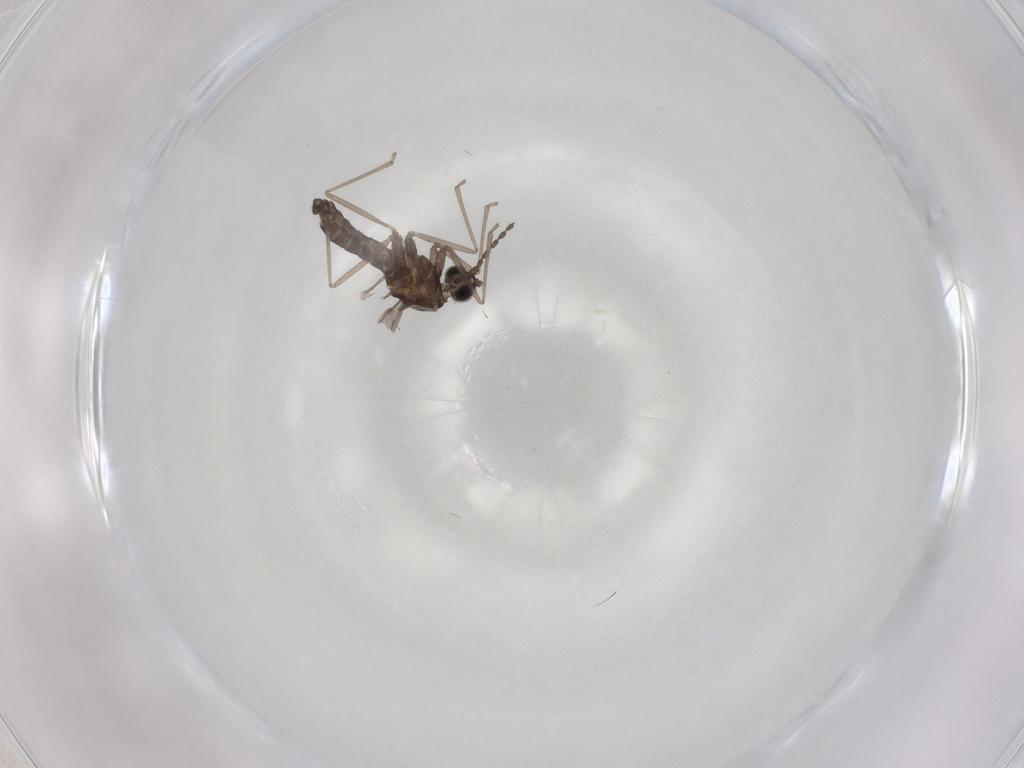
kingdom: Animalia
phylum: Arthropoda
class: Insecta
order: Diptera
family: Cecidomyiidae
